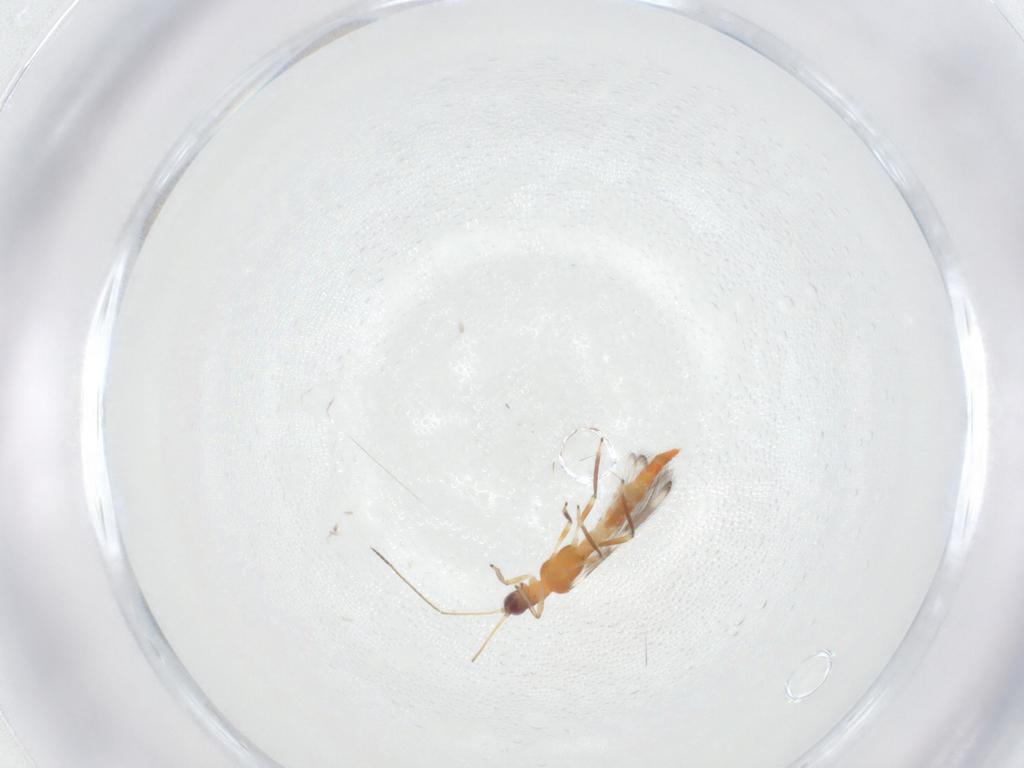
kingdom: Animalia
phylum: Arthropoda
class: Insecta
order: Thysanoptera
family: Aeolothripidae
